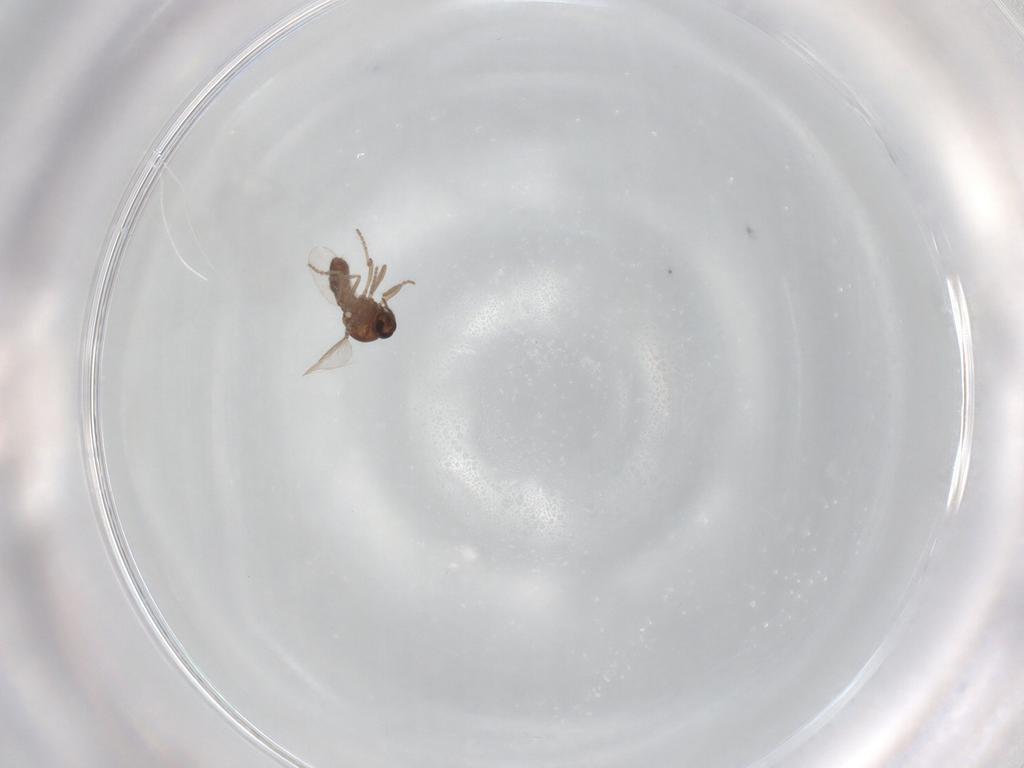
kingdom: Animalia
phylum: Arthropoda
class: Insecta
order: Diptera
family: Ceratopogonidae
